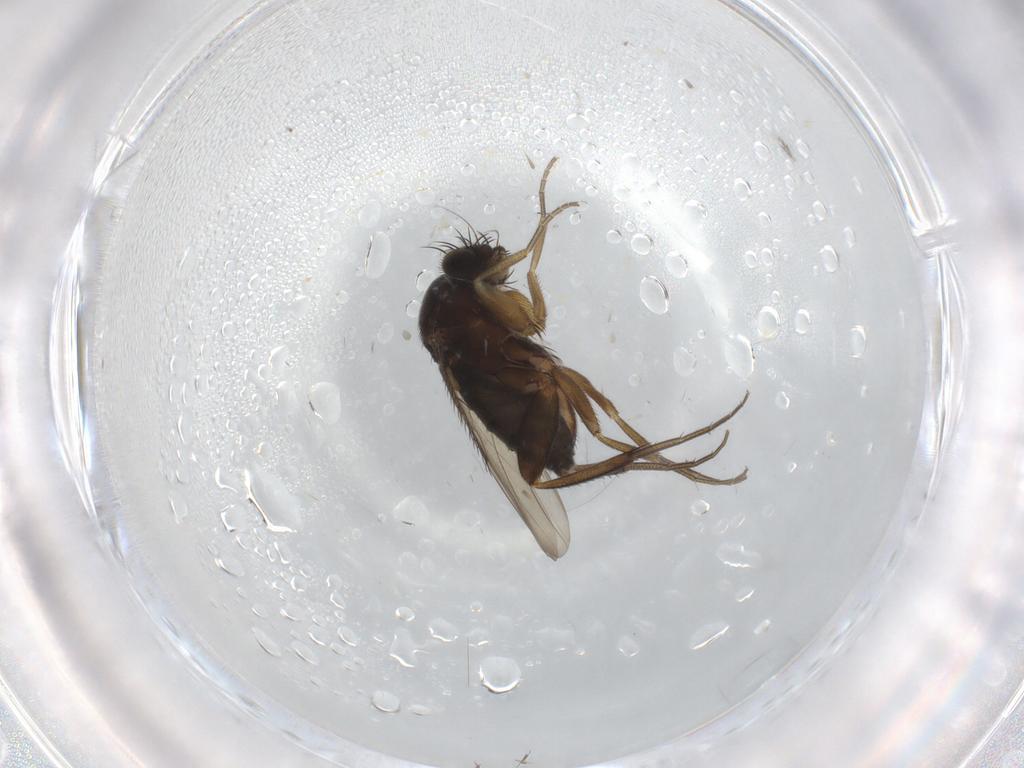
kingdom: Animalia
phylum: Arthropoda
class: Insecta
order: Diptera
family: Phoridae
